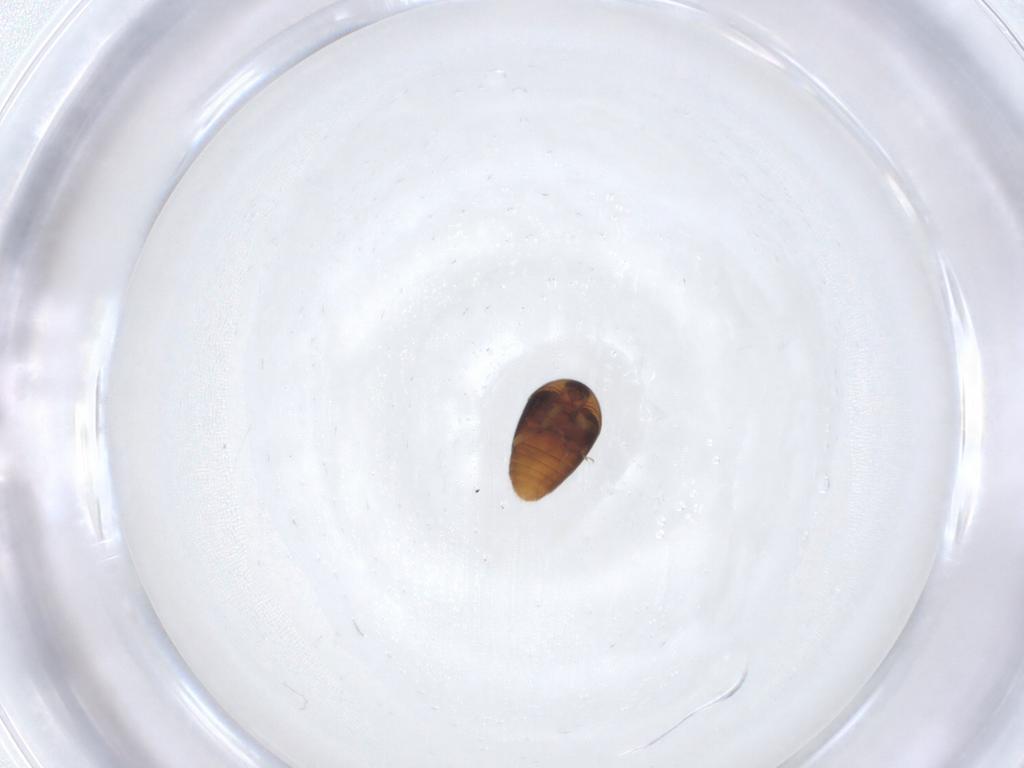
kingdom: Animalia
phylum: Arthropoda
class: Insecta
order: Coleoptera
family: Corylophidae
